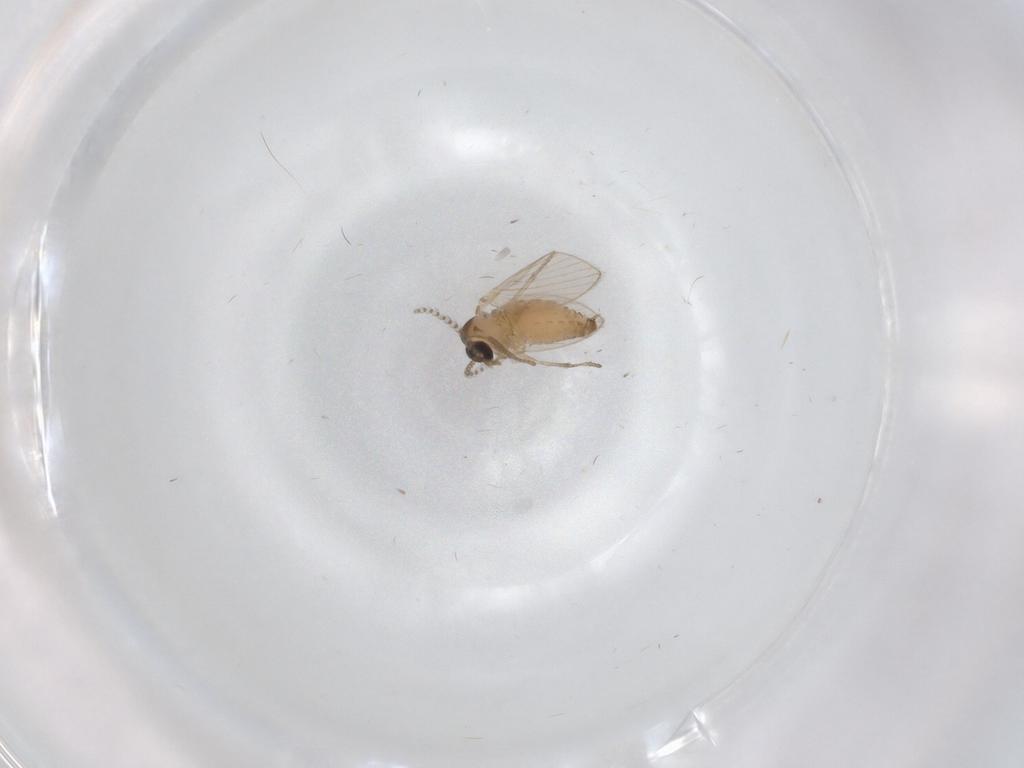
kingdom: Animalia
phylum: Arthropoda
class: Insecta
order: Diptera
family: Psychodidae
